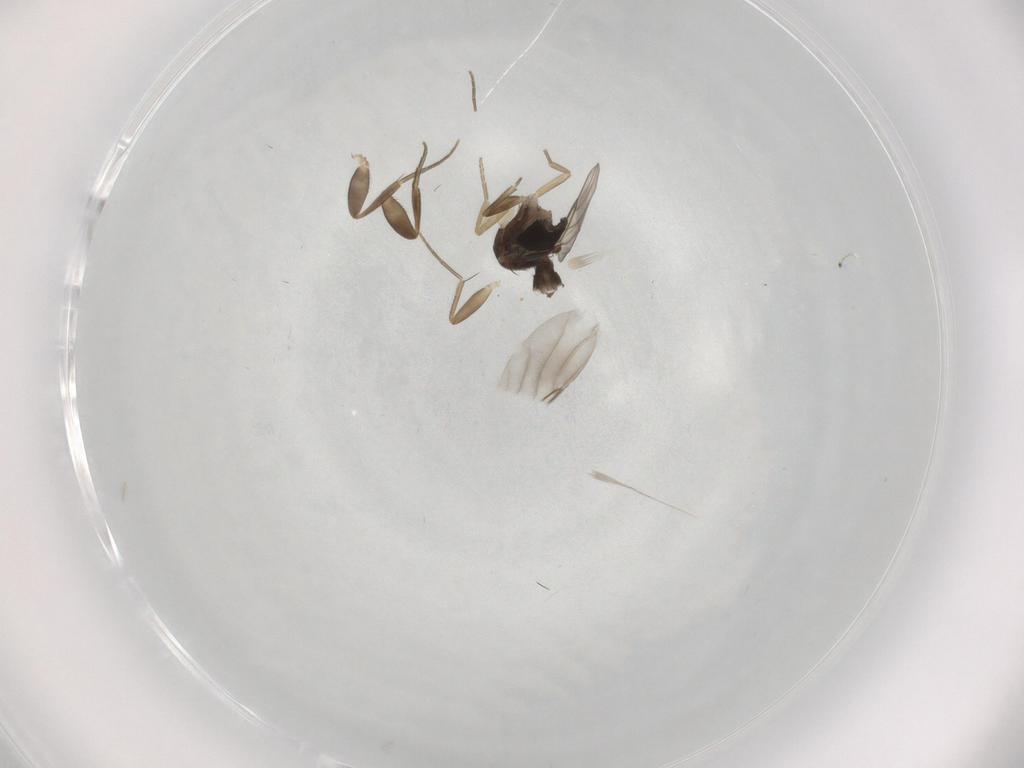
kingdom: Animalia
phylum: Arthropoda
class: Insecta
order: Diptera
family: Phoridae
